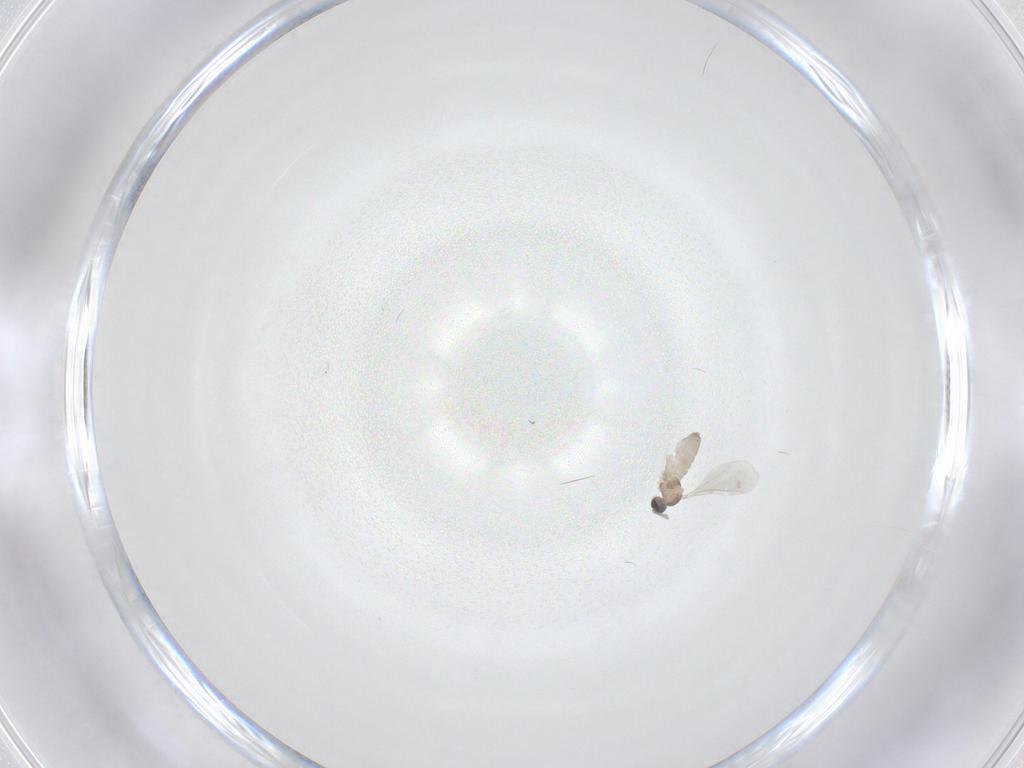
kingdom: Animalia
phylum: Arthropoda
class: Insecta
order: Diptera
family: Cecidomyiidae
